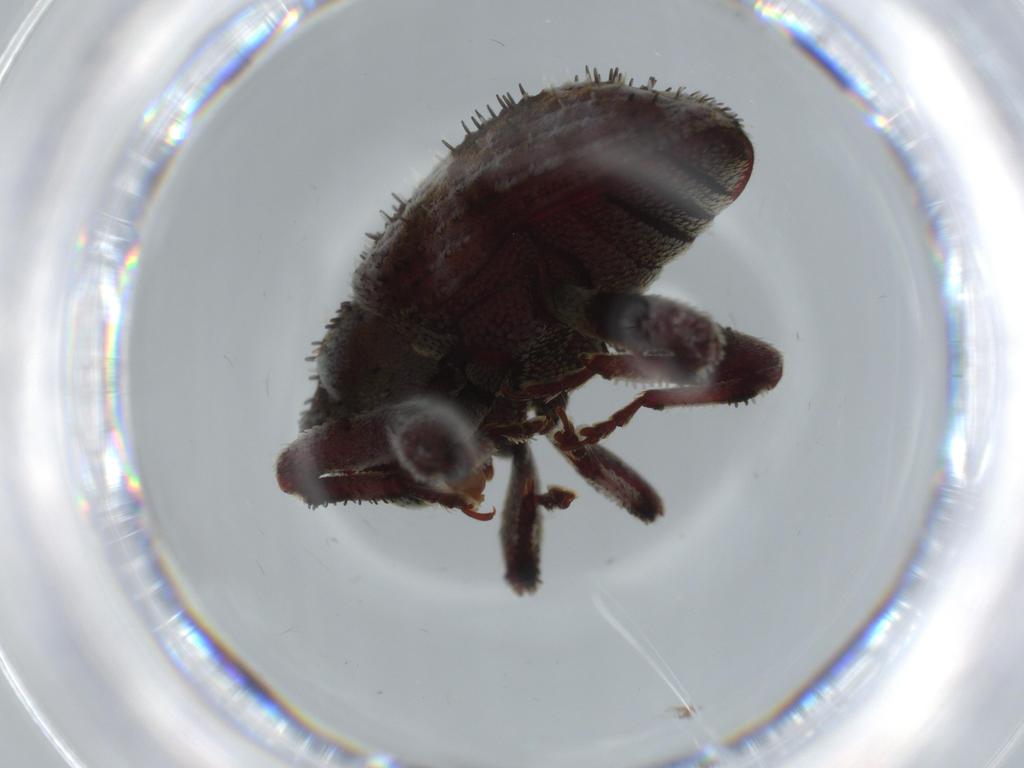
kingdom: Animalia
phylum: Arthropoda
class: Insecta
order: Coleoptera
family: Curculionidae
